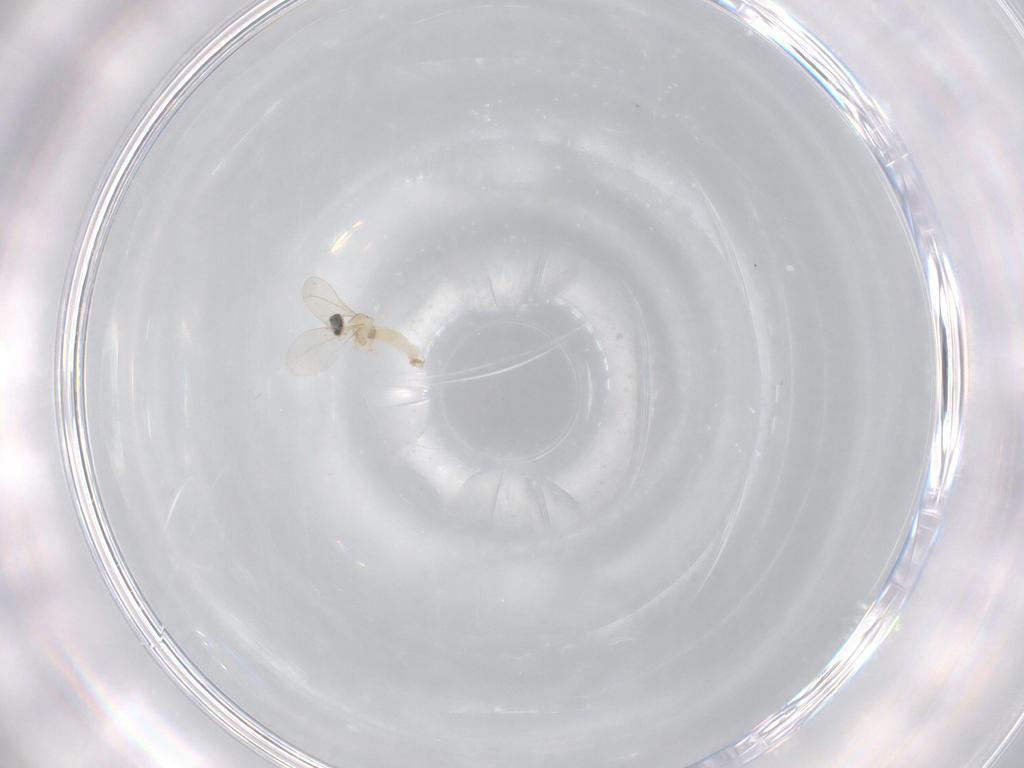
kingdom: Animalia
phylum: Arthropoda
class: Insecta
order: Diptera
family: Cecidomyiidae
